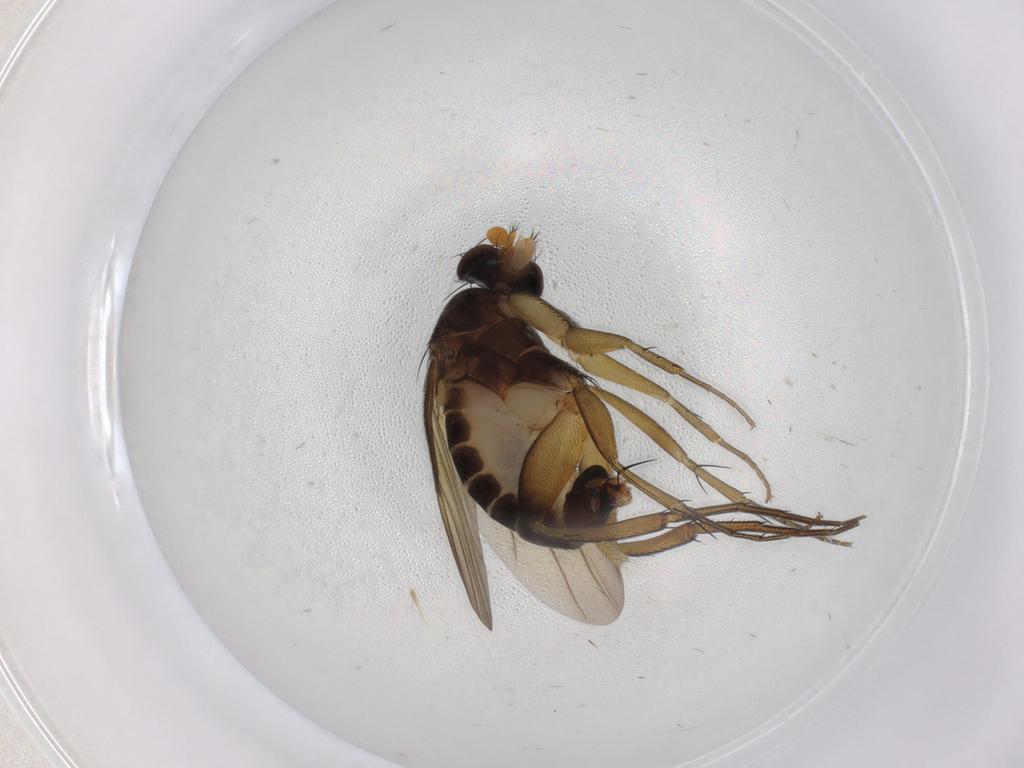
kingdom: Animalia
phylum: Arthropoda
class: Insecta
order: Diptera
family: Phoridae
